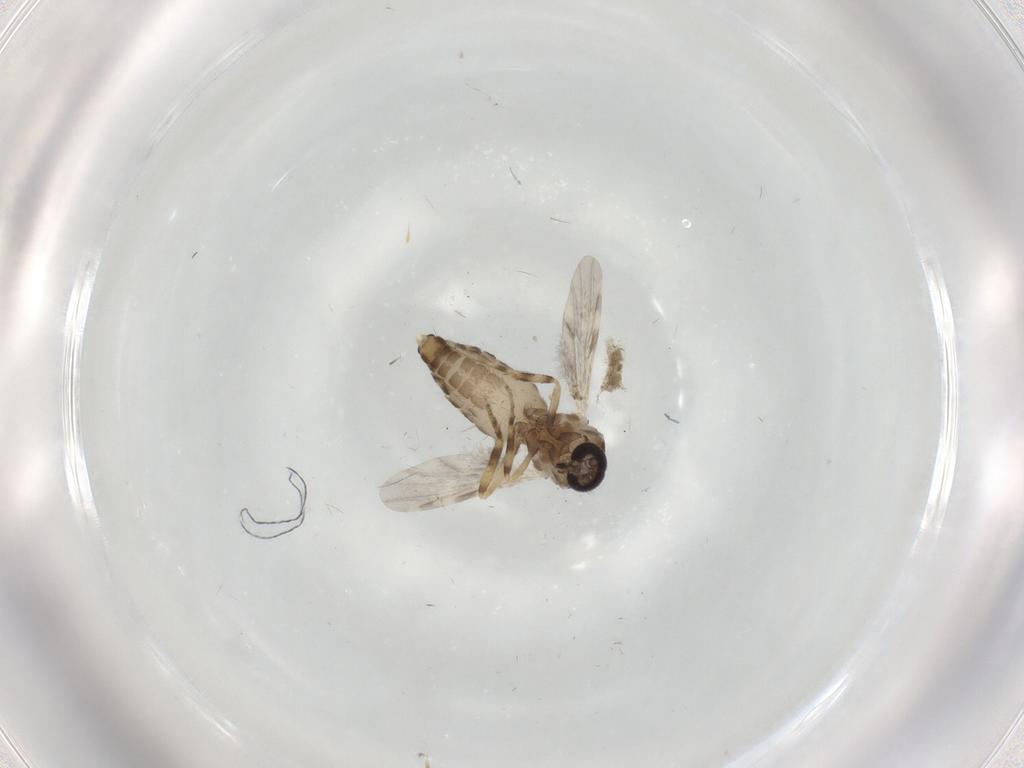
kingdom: Animalia
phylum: Arthropoda
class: Insecta
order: Diptera
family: Ceratopogonidae
